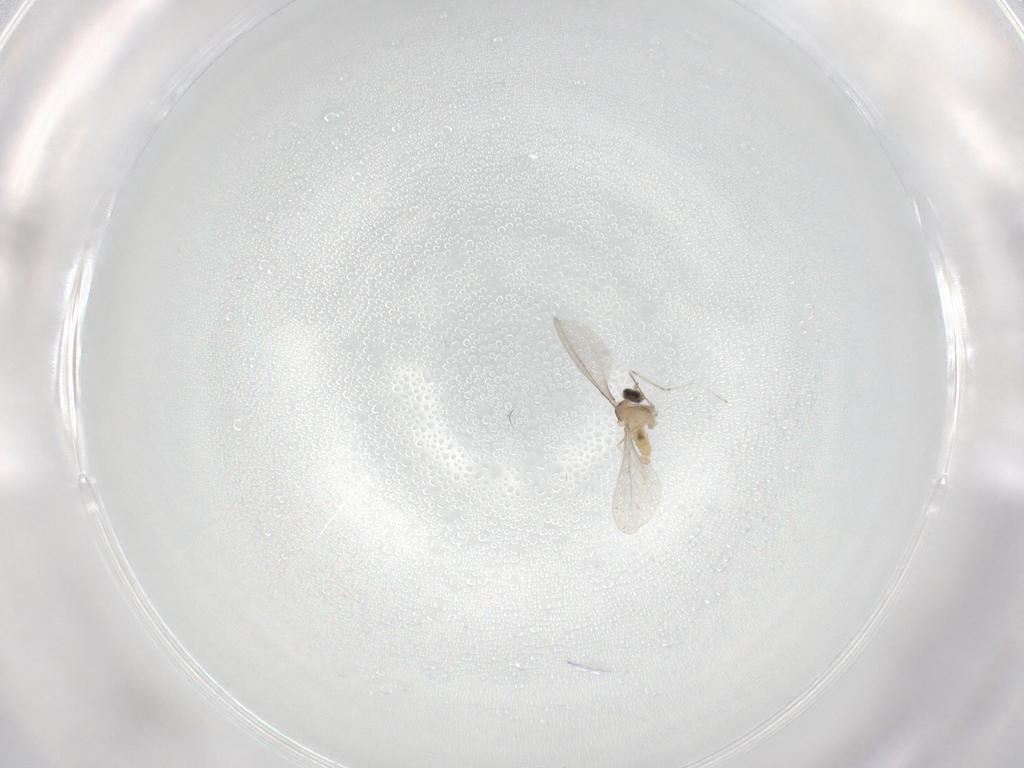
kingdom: Animalia
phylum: Arthropoda
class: Insecta
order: Diptera
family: Cecidomyiidae
